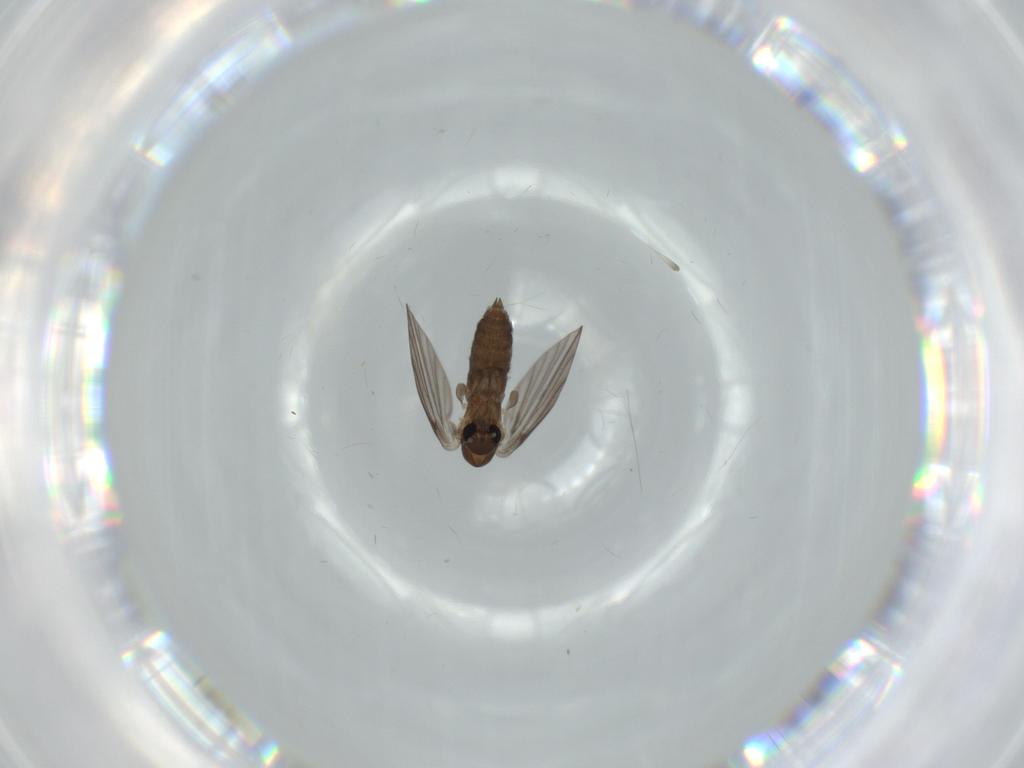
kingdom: Animalia
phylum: Arthropoda
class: Insecta
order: Diptera
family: Psychodidae
